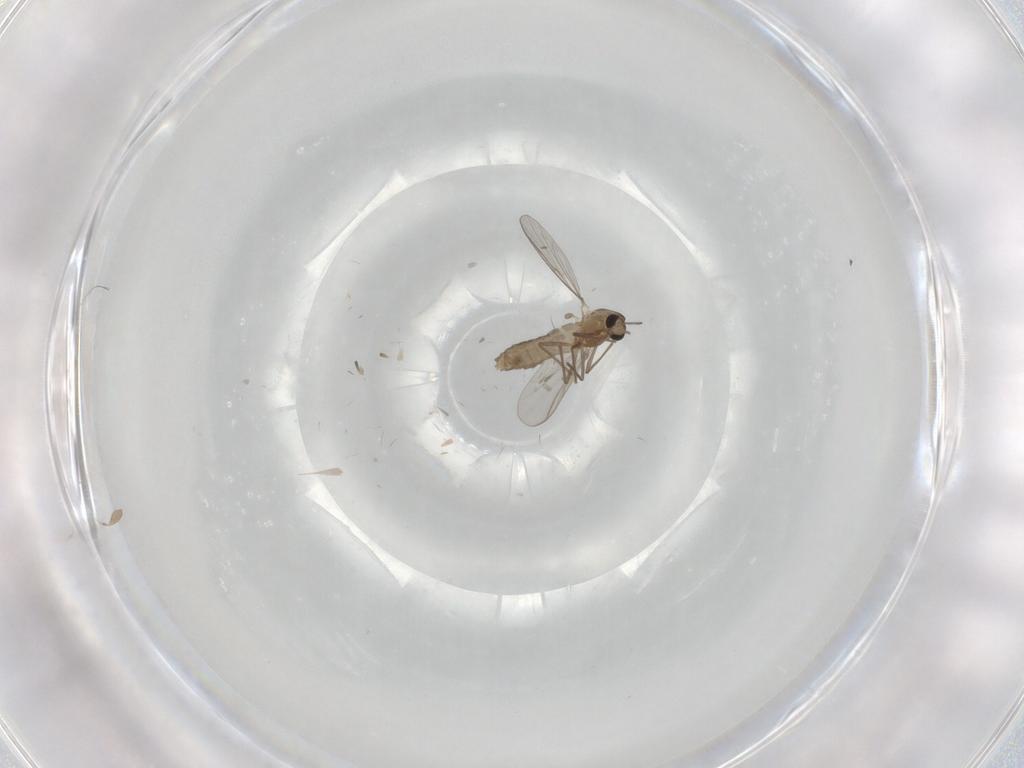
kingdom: Animalia
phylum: Arthropoda
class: Insecta
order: Diptera
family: Chironomidae
